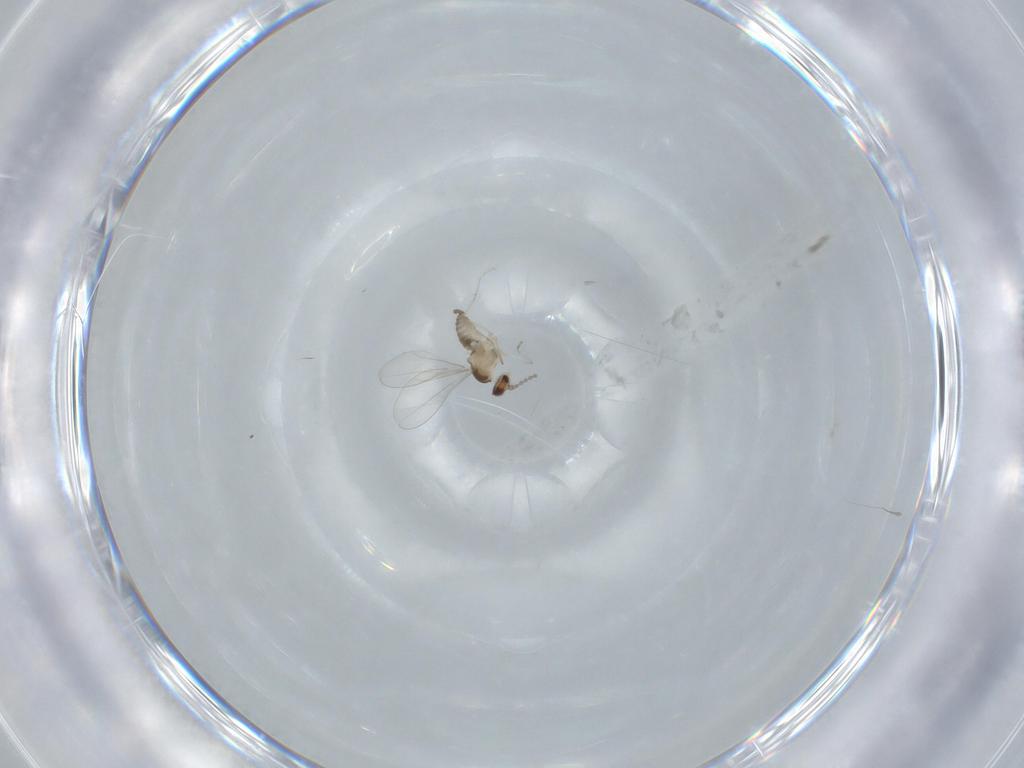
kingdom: Animalia
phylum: Arthropoda
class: Insecta
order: Diptera
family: Cecidomyiidae
